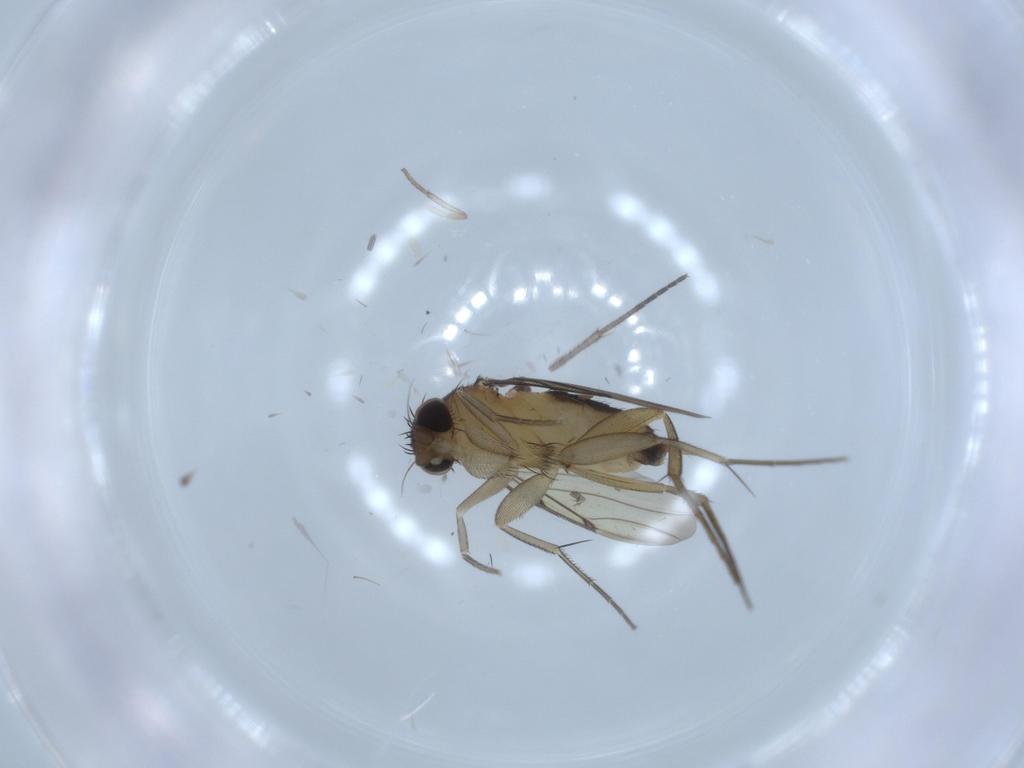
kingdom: Animalia
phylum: Arthropoda
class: Insecta
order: Diptera
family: Phoridae
